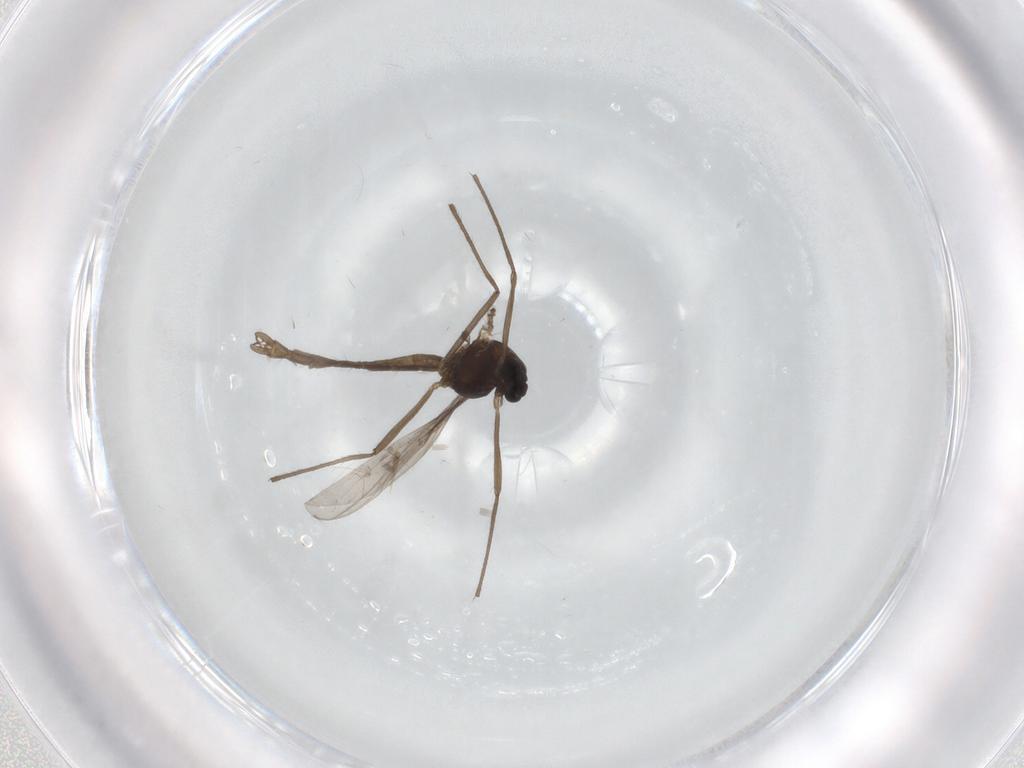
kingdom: Animalia
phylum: Arthropoda
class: Insecta
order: Diptera
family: Chironomidae
